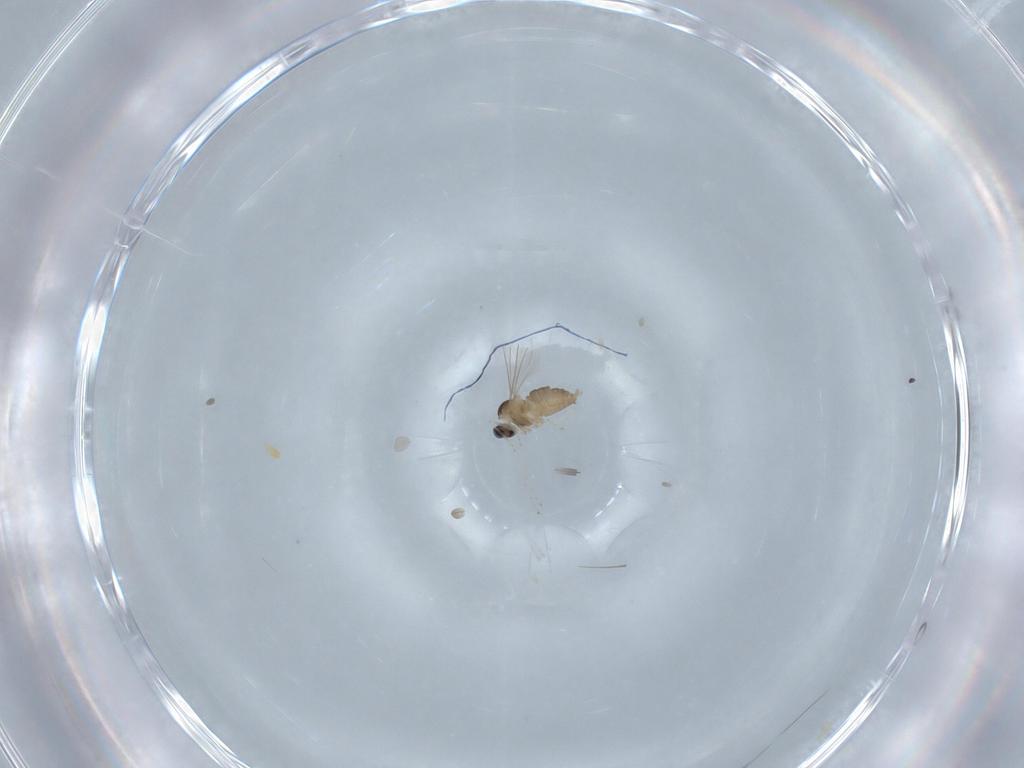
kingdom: Animalia
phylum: Arthropoda
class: Insecta
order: Diptera
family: Cecidomyiidae
